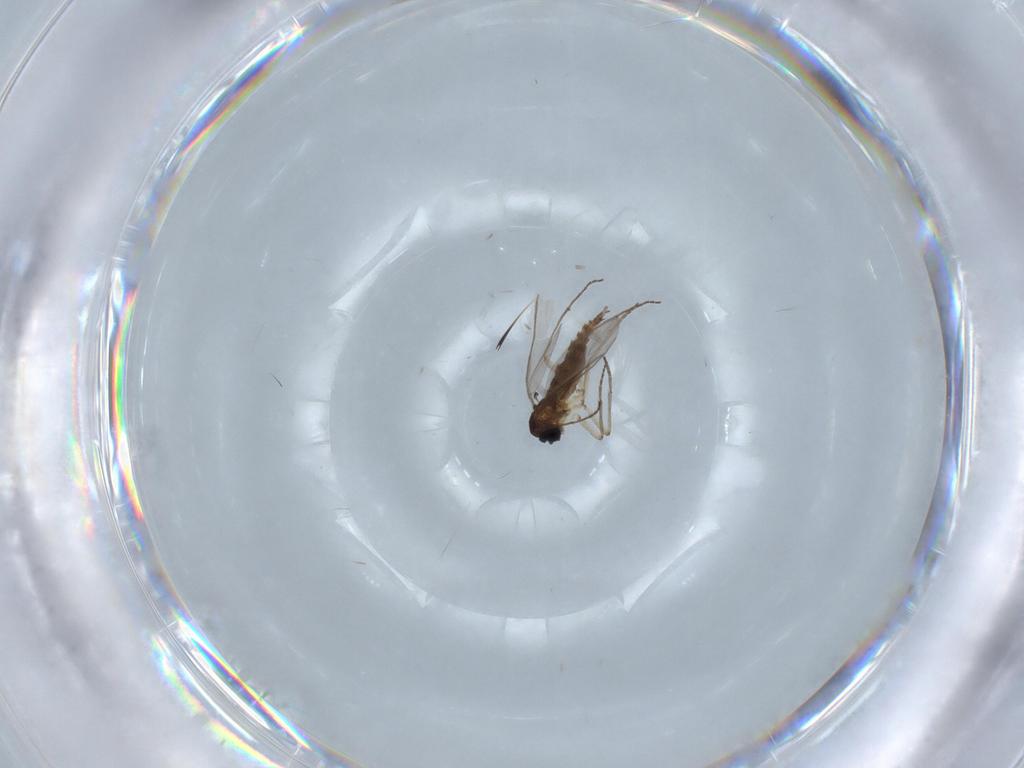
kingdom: Animalia
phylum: Arthropoda
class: Insecta
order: Diptera
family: Sciaridae
